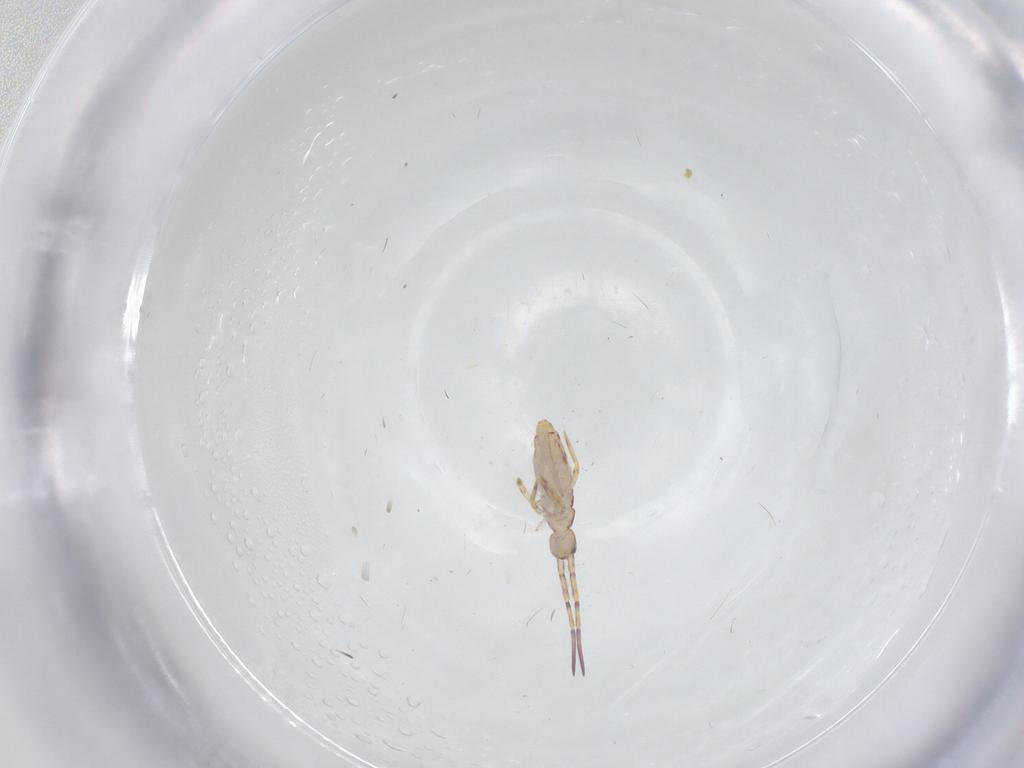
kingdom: Animalia
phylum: Arthropoda
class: Collembola
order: Entomobryomorpha
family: Entomobryidae
